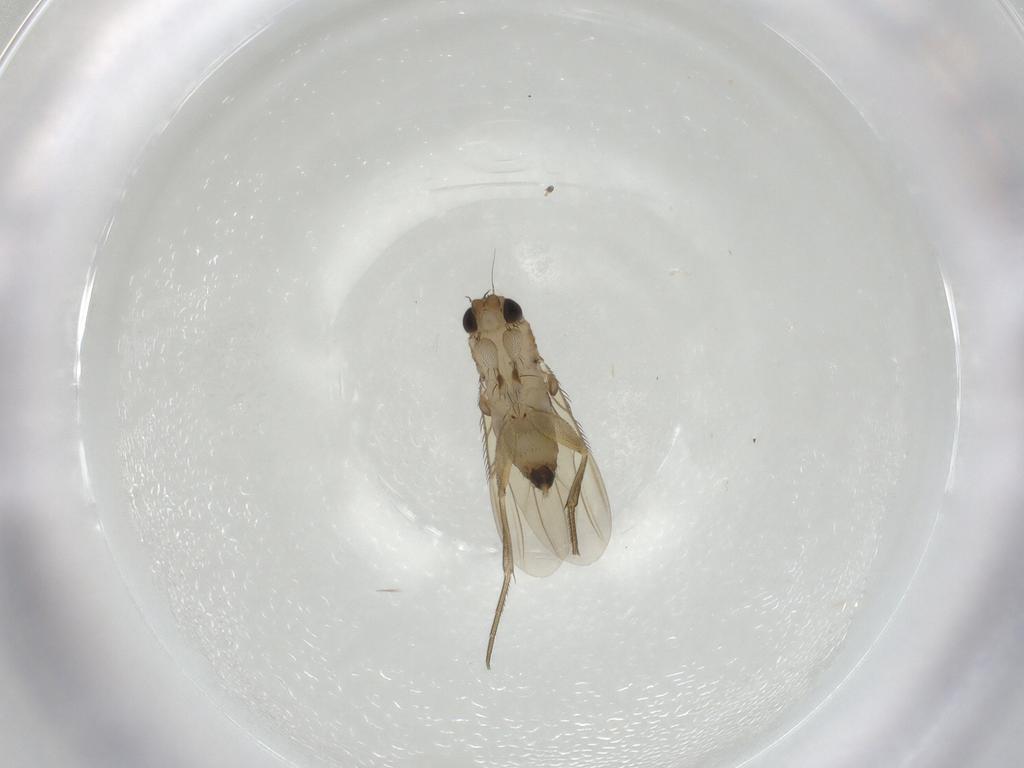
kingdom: Animalia
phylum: Arthropoda
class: Insecta
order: Diptera
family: Phoridae
